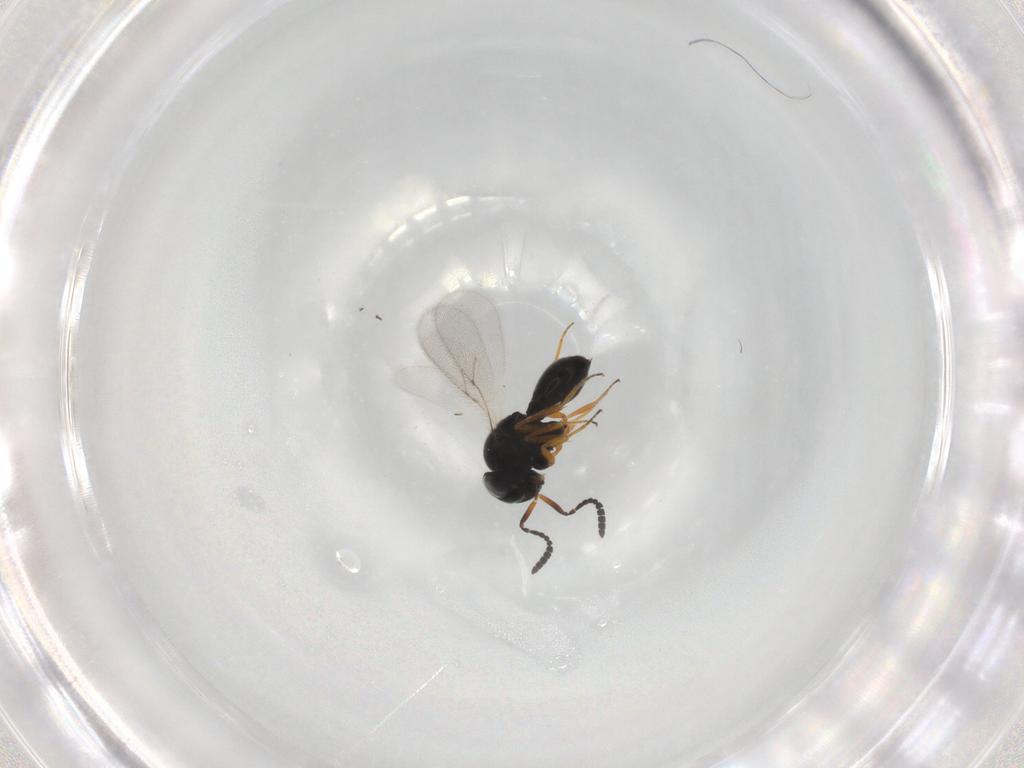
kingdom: Animalia
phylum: Arthropoda
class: Insecta
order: Hymenoptera
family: Scelionidae
